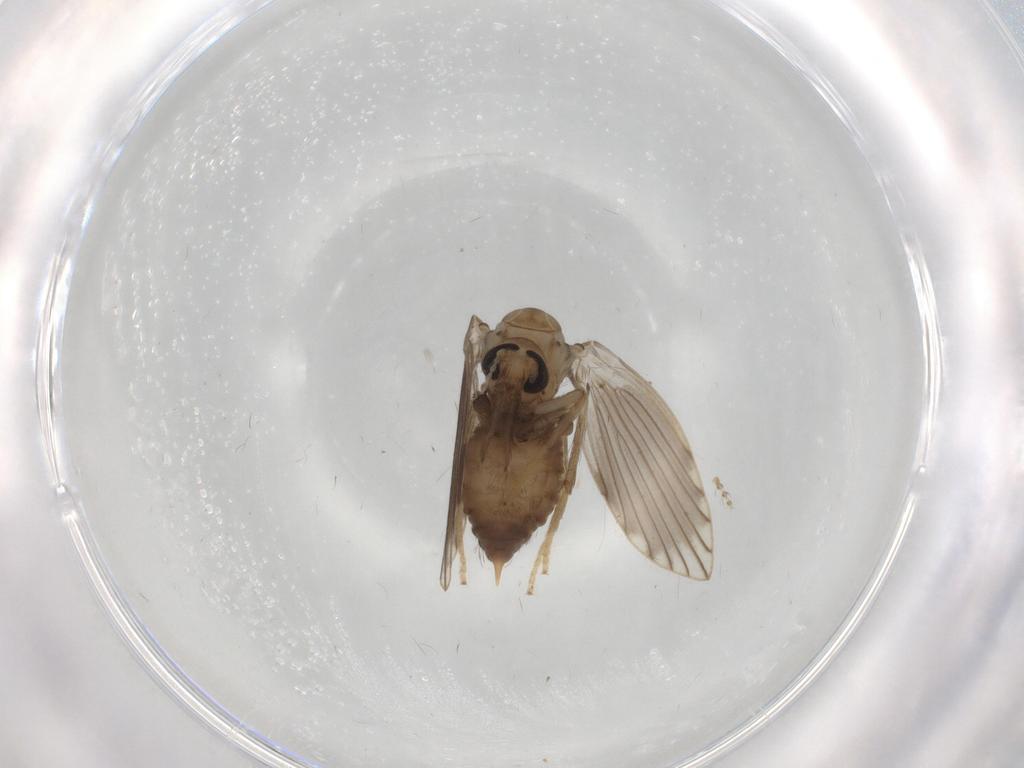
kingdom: Animalia
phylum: Arthropoda
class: Insecta
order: Diptera
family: Psychodidae
